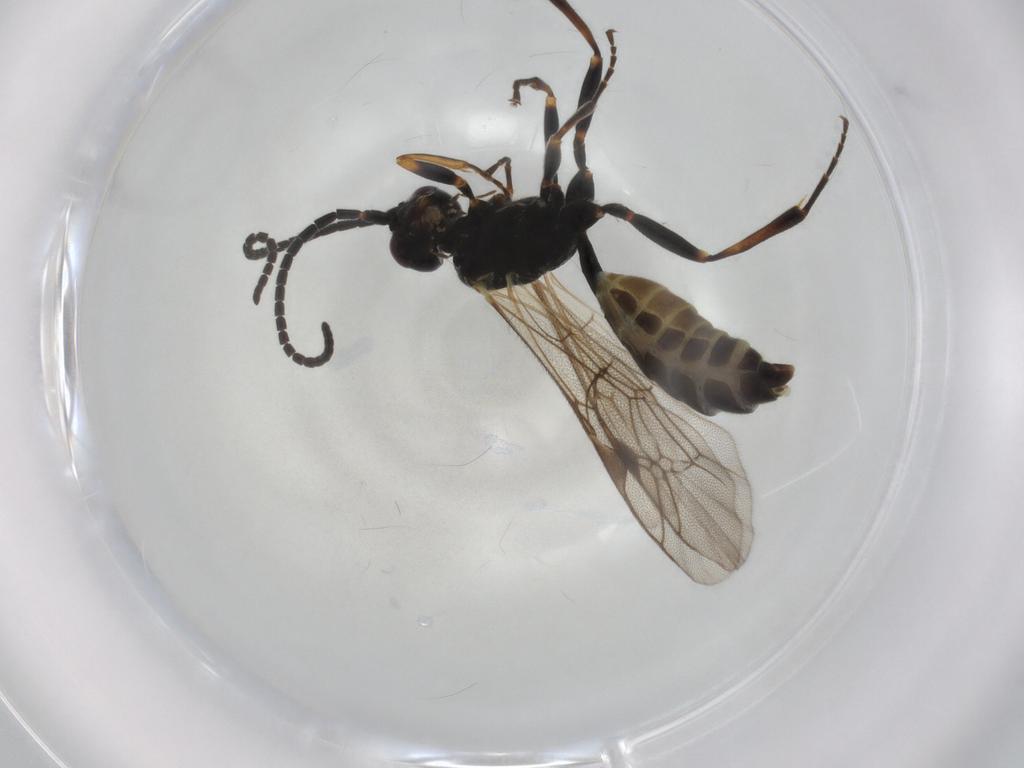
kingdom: Animalia
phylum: Arthropoda
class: Insecta
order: Hymenoptera
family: Ichneumonidae
